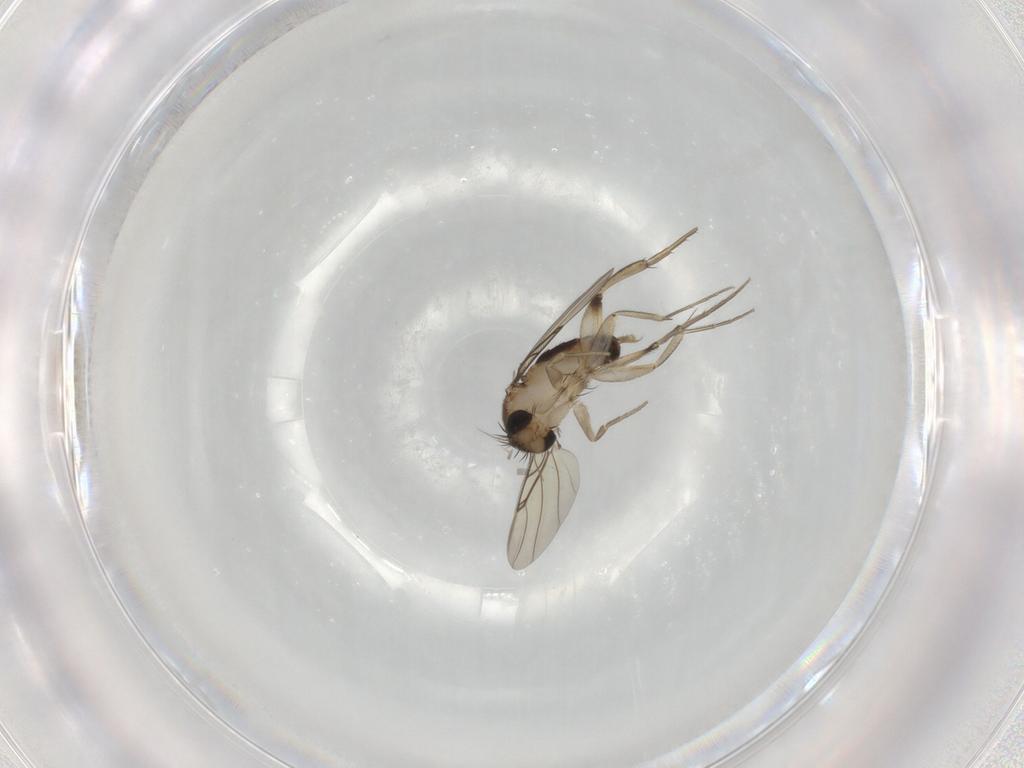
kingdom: Animalia
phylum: Arthropoda
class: Insecta
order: Diptera
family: Phoridae
